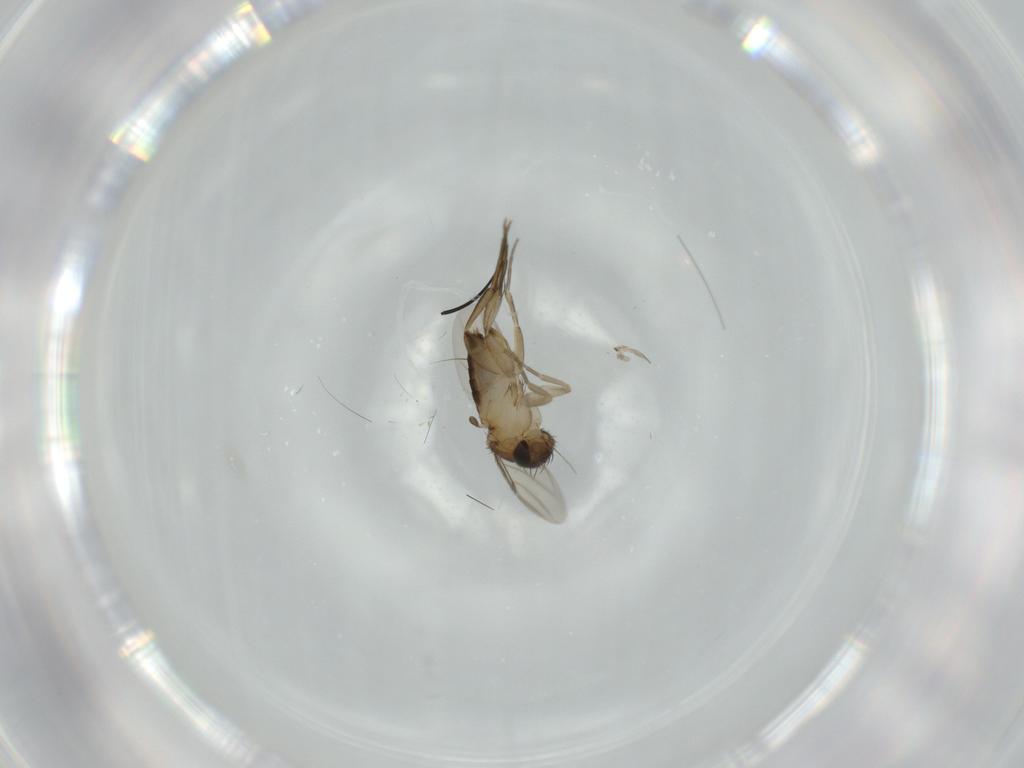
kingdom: Animalia
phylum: Arthropoda
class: Insecta
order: Diptera
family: Phoridae
